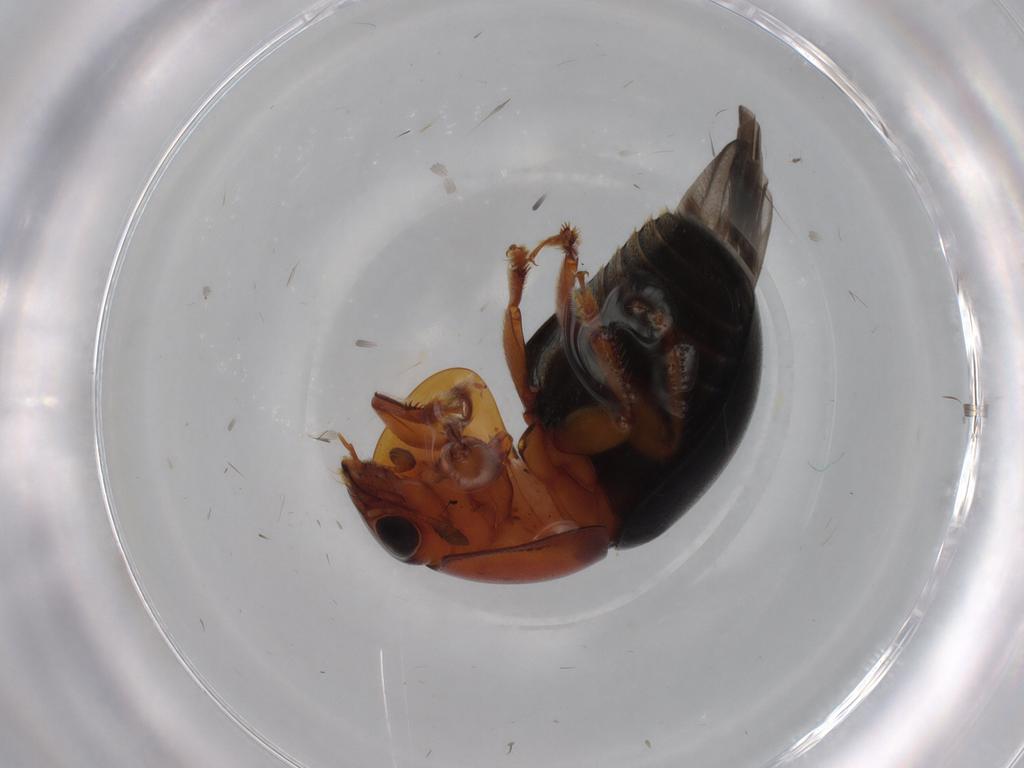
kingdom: Animalia
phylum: Arthropoda
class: Insecta
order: Coleoptera
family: Nitidulidae
